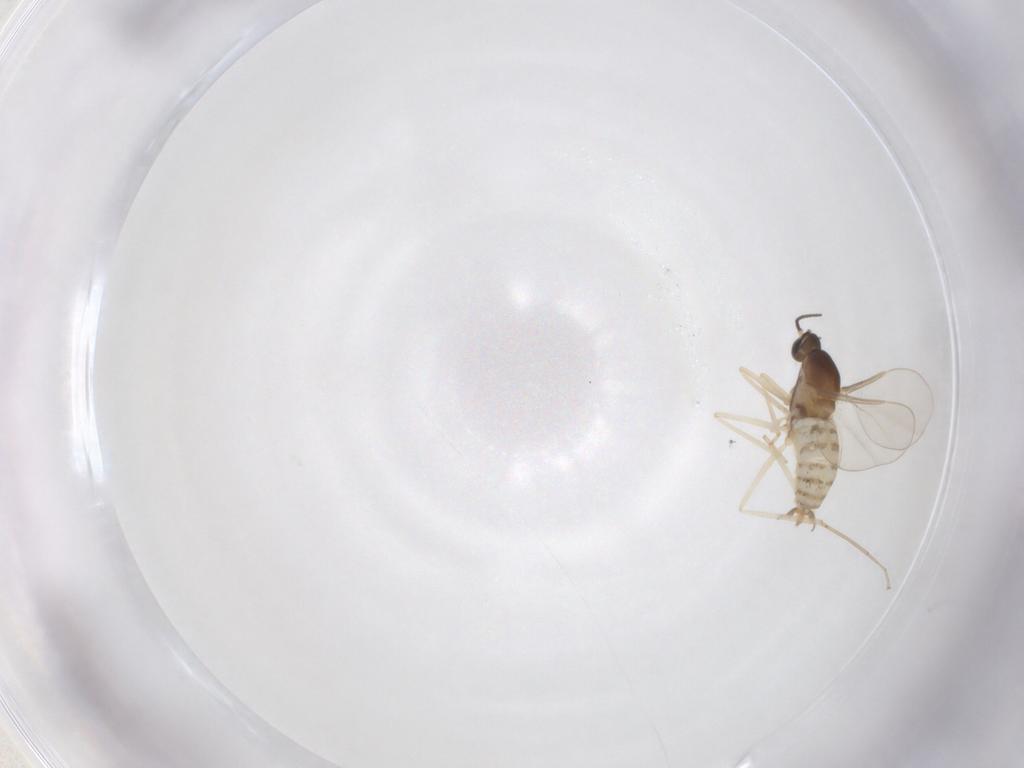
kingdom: Animalia
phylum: Arthropoda
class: Insecta
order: Diptera
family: Cecidomyiidae
